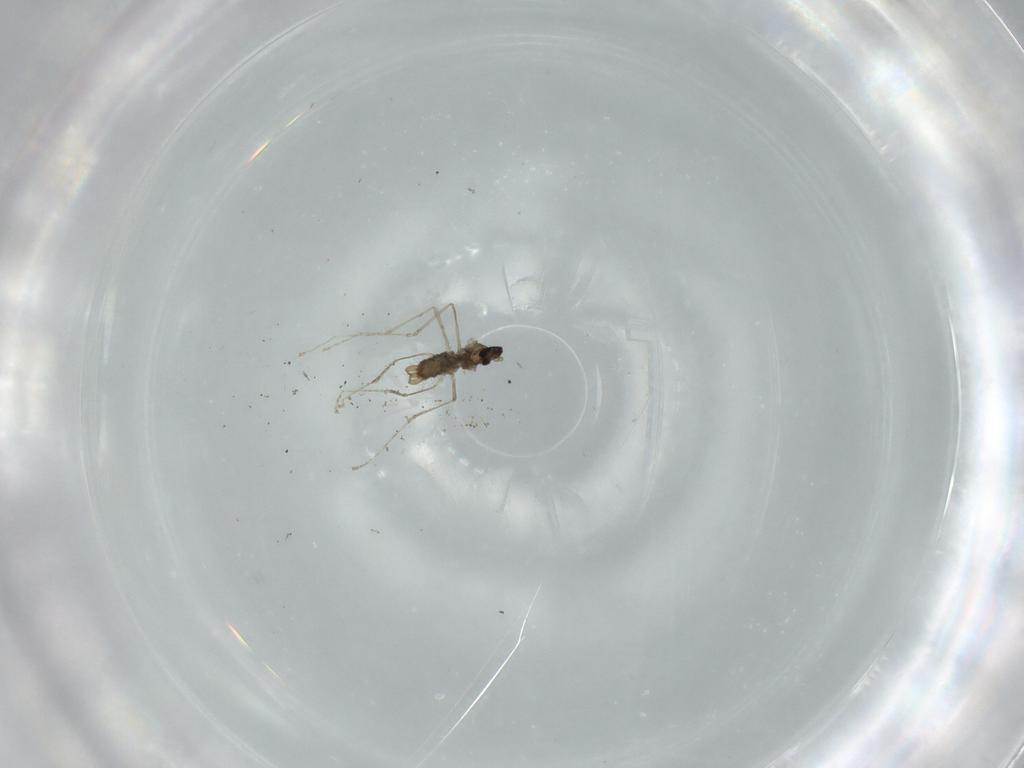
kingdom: Animalia
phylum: Arthropoda
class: Insecta
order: Diptera
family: Cecidomyiidae
